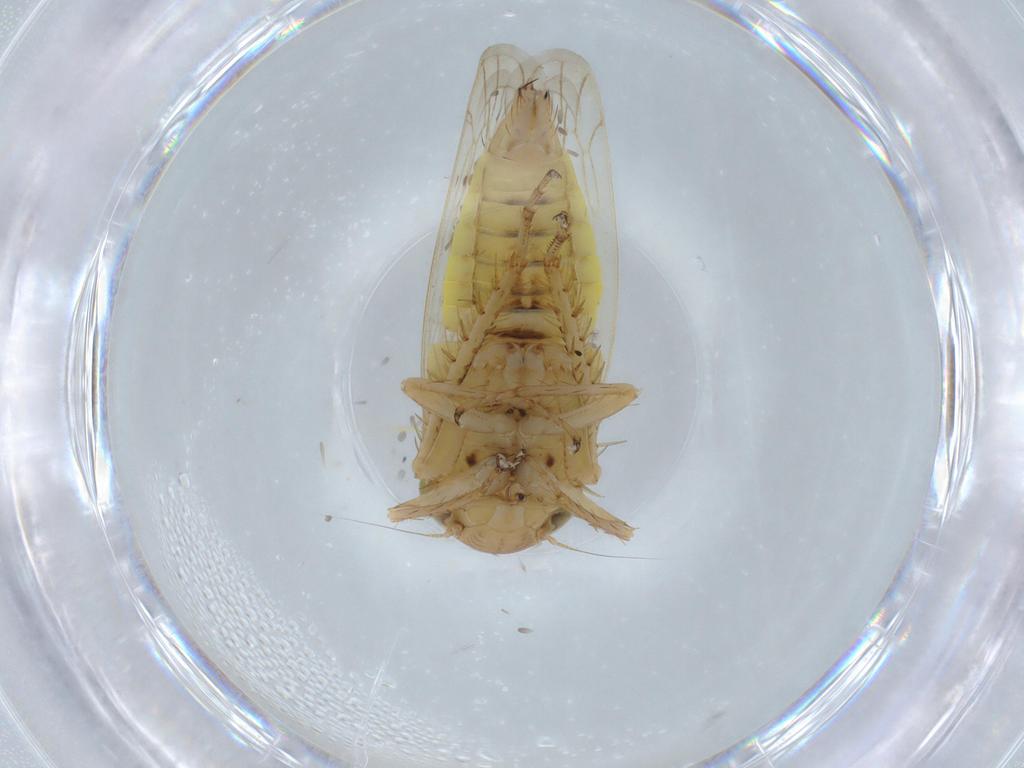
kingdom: Animalia
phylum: Arthropoda
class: Insecta
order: Hemiptera
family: Cicadellidae
